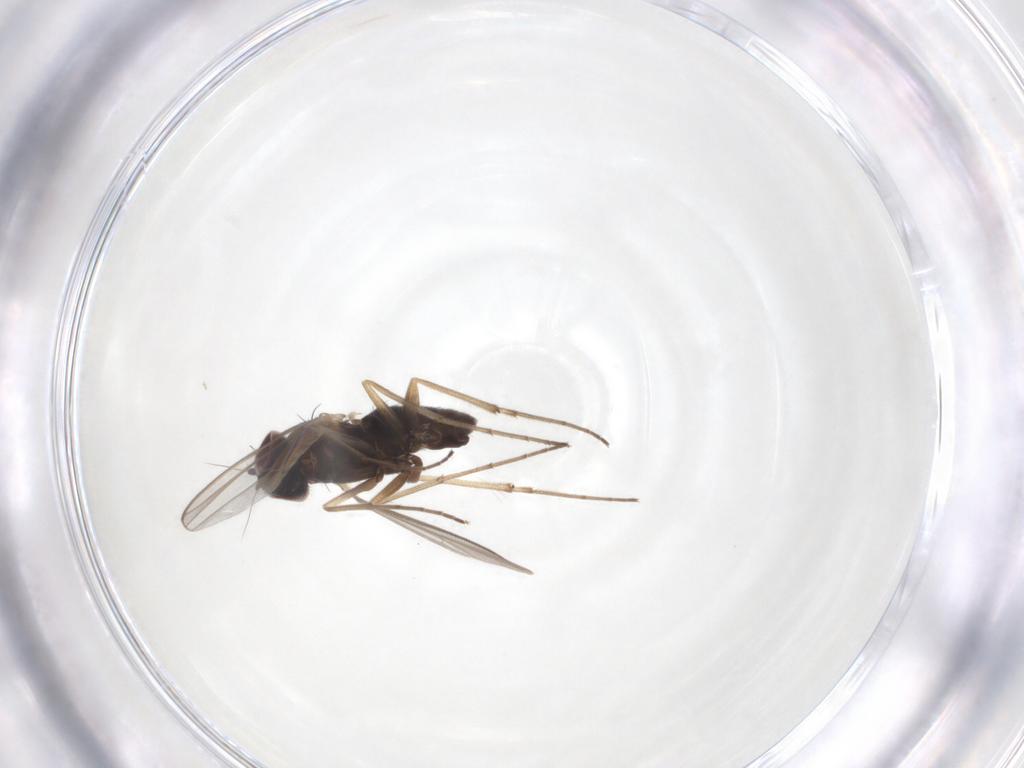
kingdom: Animalia
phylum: Arthropoda
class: Insecta
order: Diptera
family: Dolichopodidae
